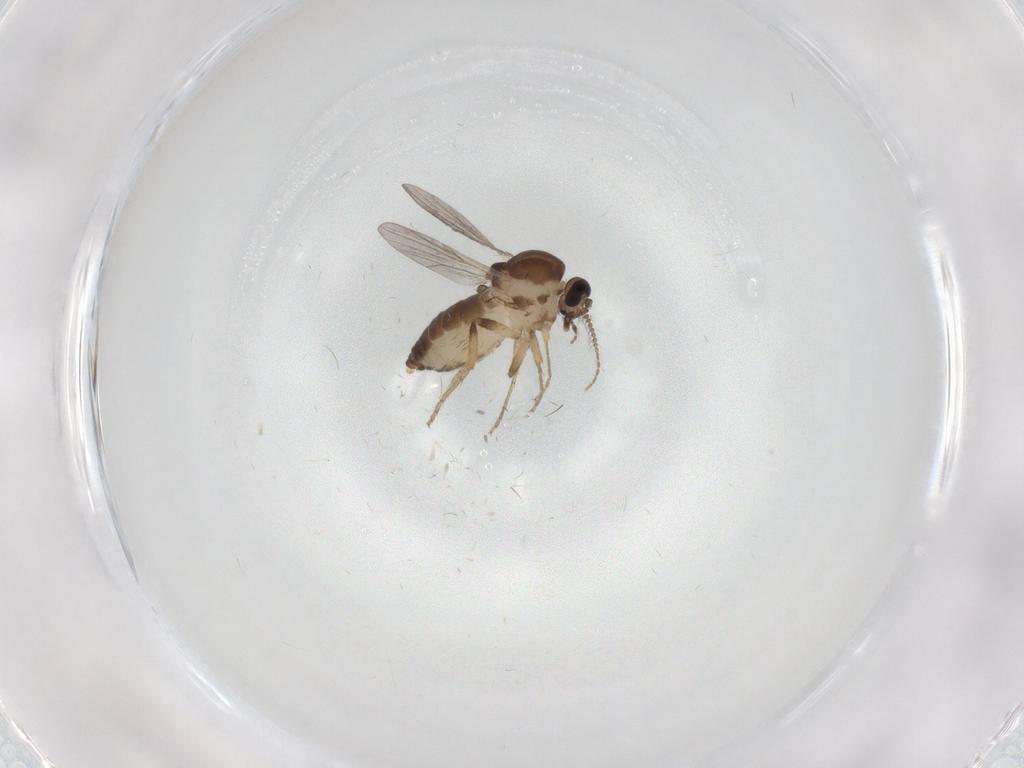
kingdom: Animalia
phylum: Arthropoda
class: Insecta
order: Diptera
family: Ceratopogonidae
